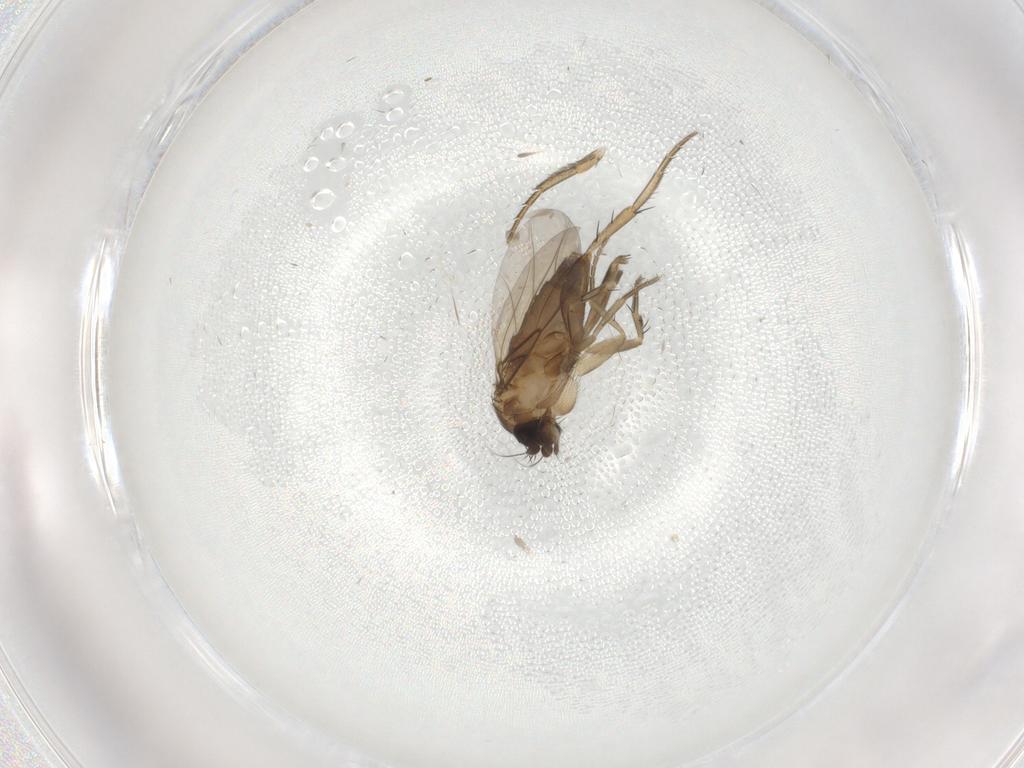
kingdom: Animalia
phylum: Arthropoda
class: Insecta
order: Diptera
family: Phoridae
